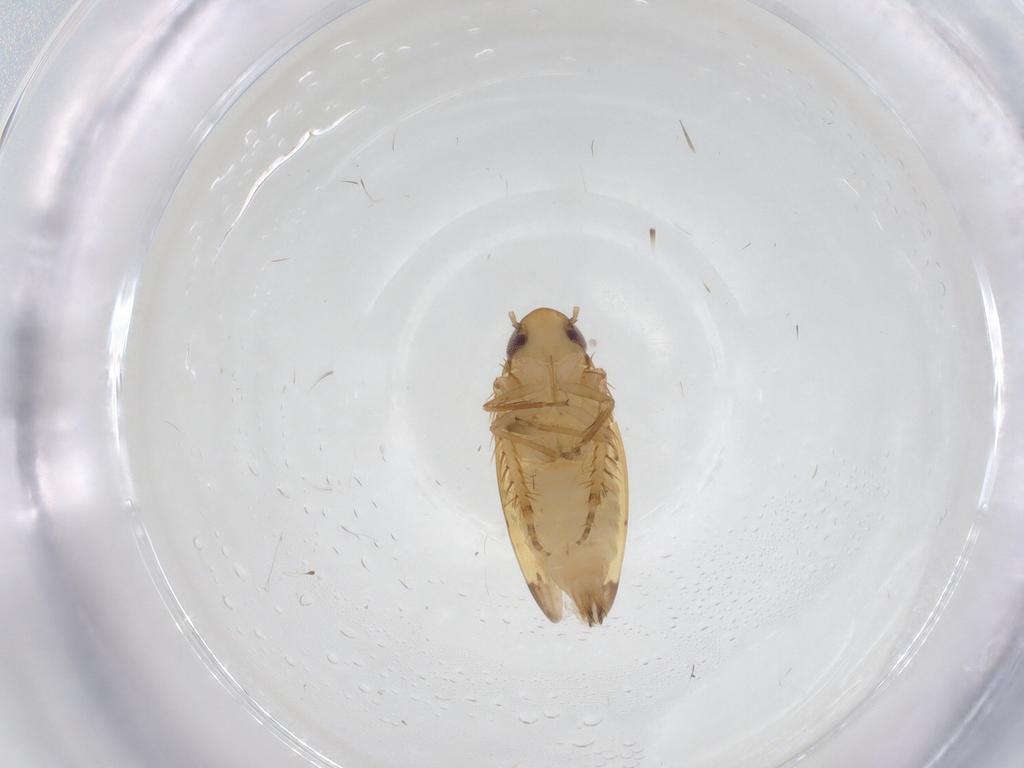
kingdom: Animalia
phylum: Arthropoda
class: Insecta
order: Hemiptera
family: Cicadellidae
